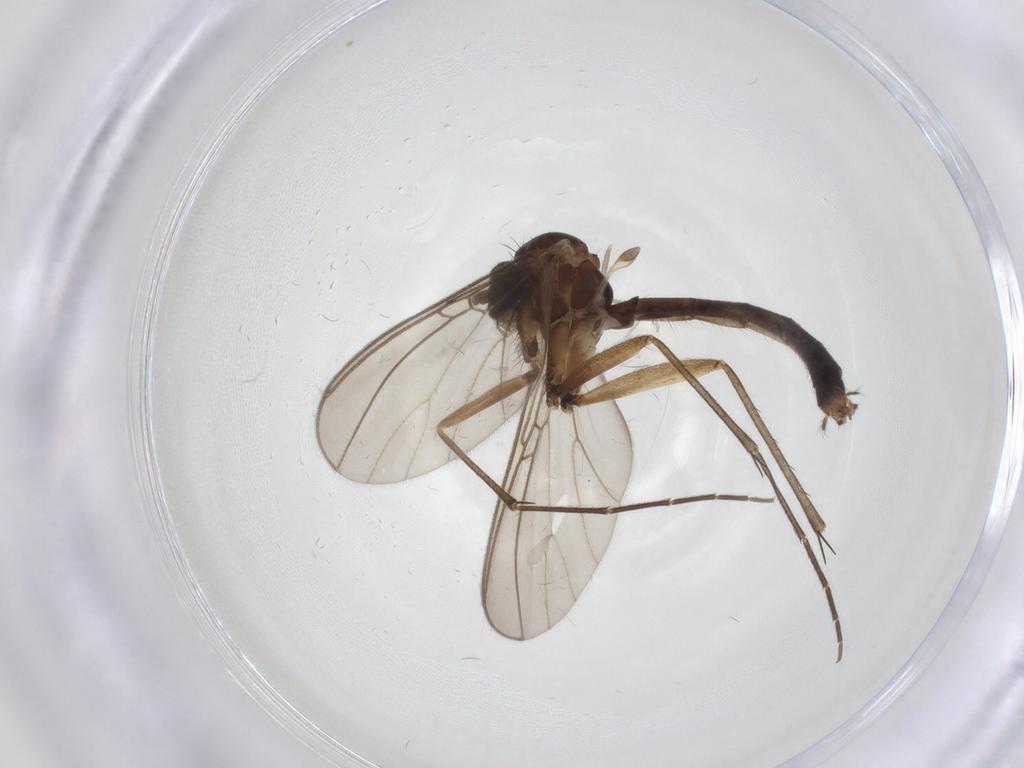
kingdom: Animalia
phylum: Arthropoda
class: Insecta
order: Diptera
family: Mycetophilidae
